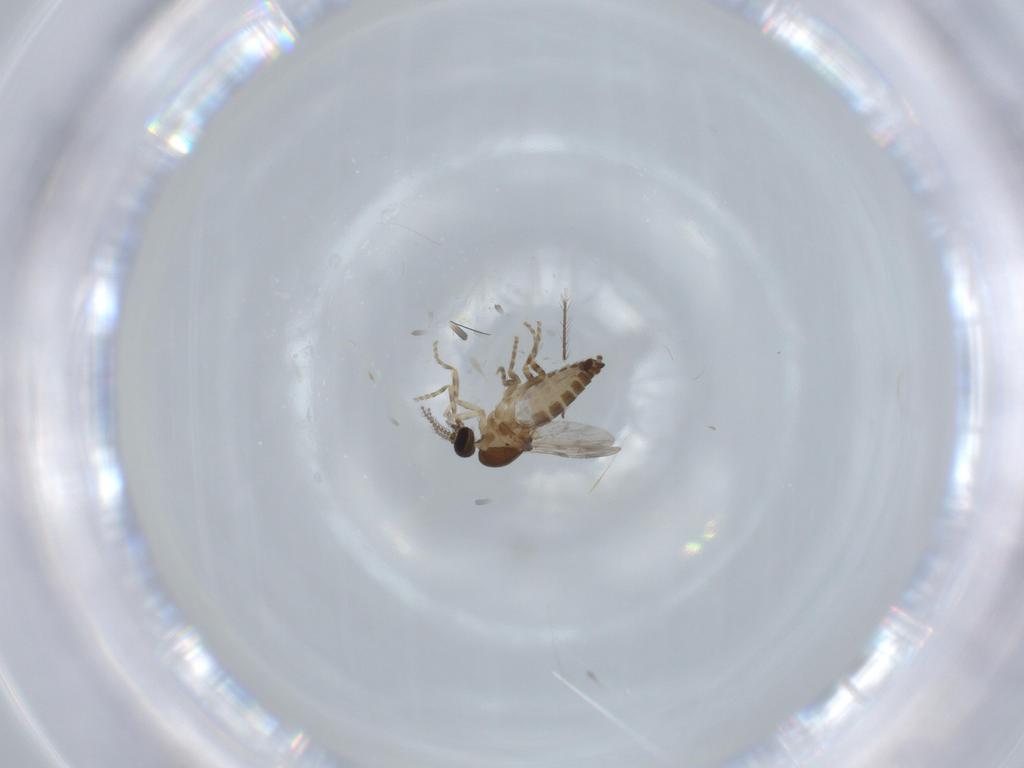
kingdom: Animalia
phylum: Arthropoda
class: Insecta
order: Diptera
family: Ceratopogonidae
